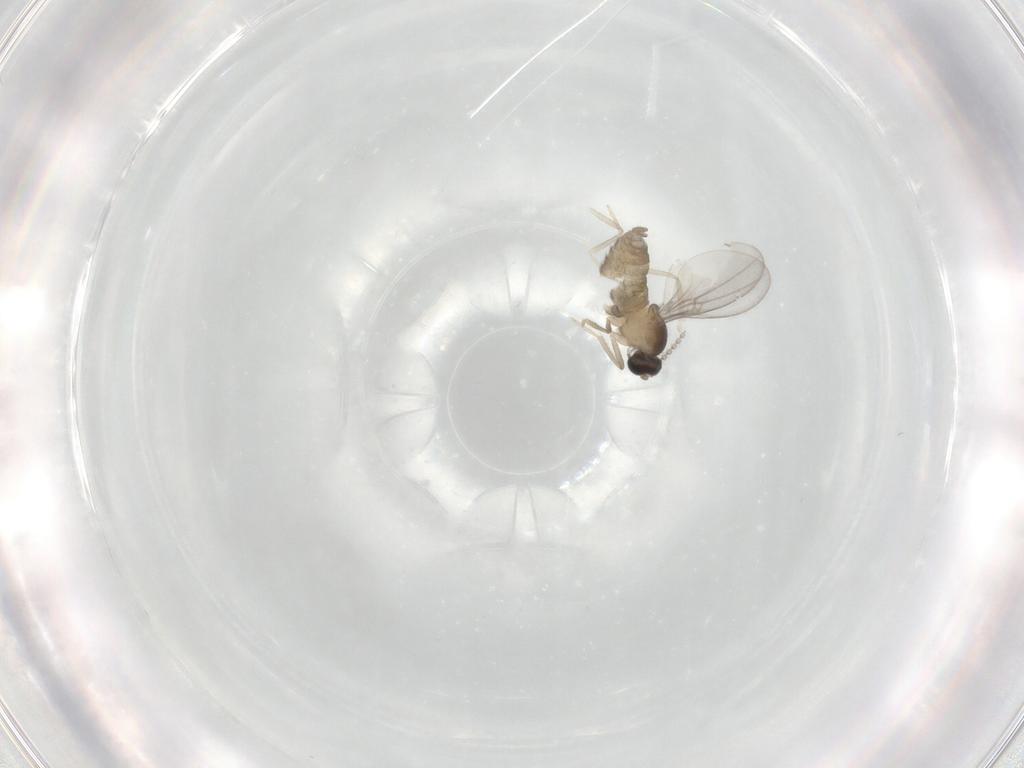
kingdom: Animalia
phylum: Arthropoda
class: Insecta
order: Diptera
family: Cecidomyiidae
